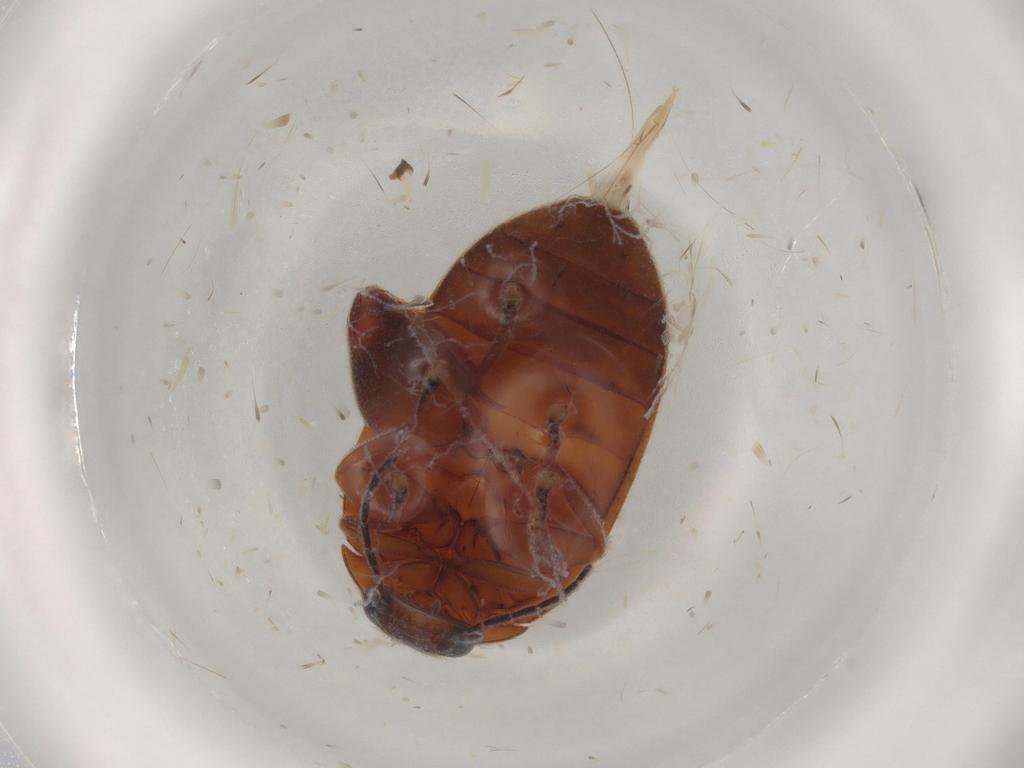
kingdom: Animalia
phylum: Arthropoda
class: Insecta
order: Coleoptera
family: Scirtidae
